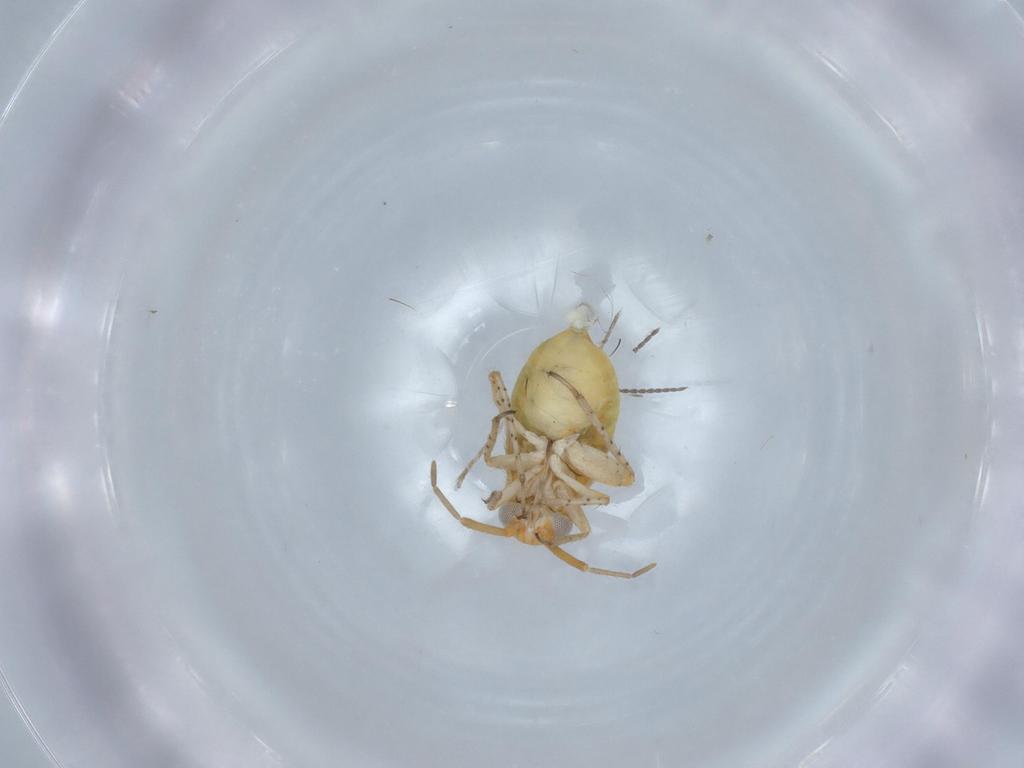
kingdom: Animalia
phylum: Arthropoda
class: Insecta
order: Hemiptera
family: Miridae
